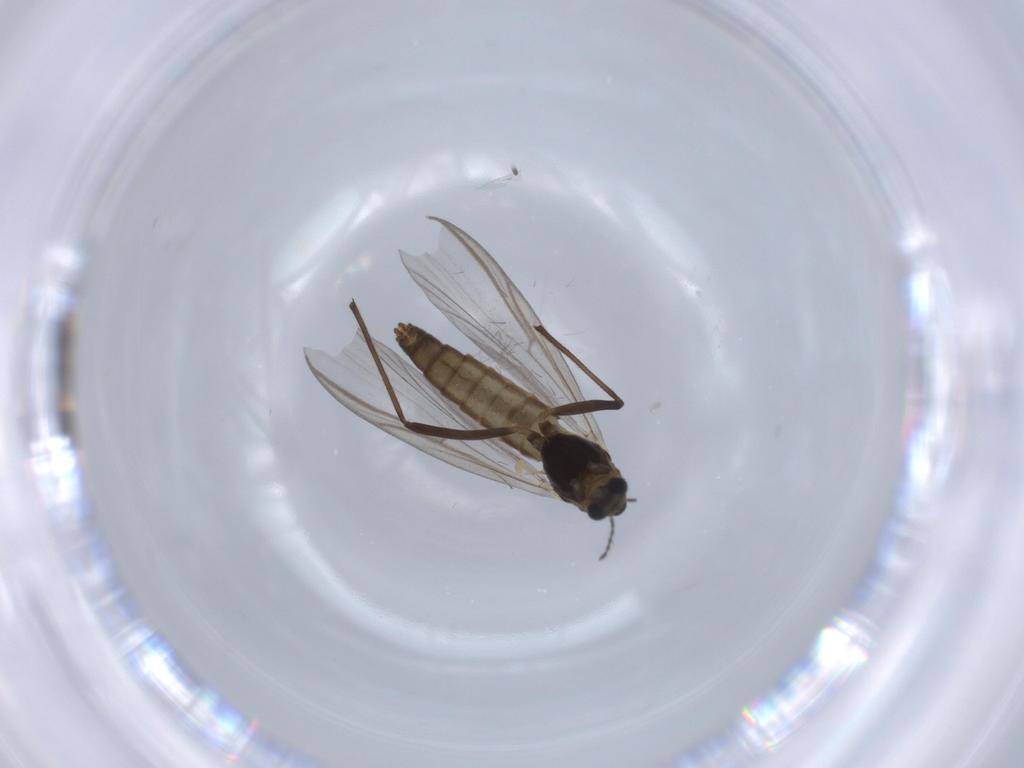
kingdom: Animalia
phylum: Arthropoda
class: Insecta
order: Diptera
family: Chironomidae
